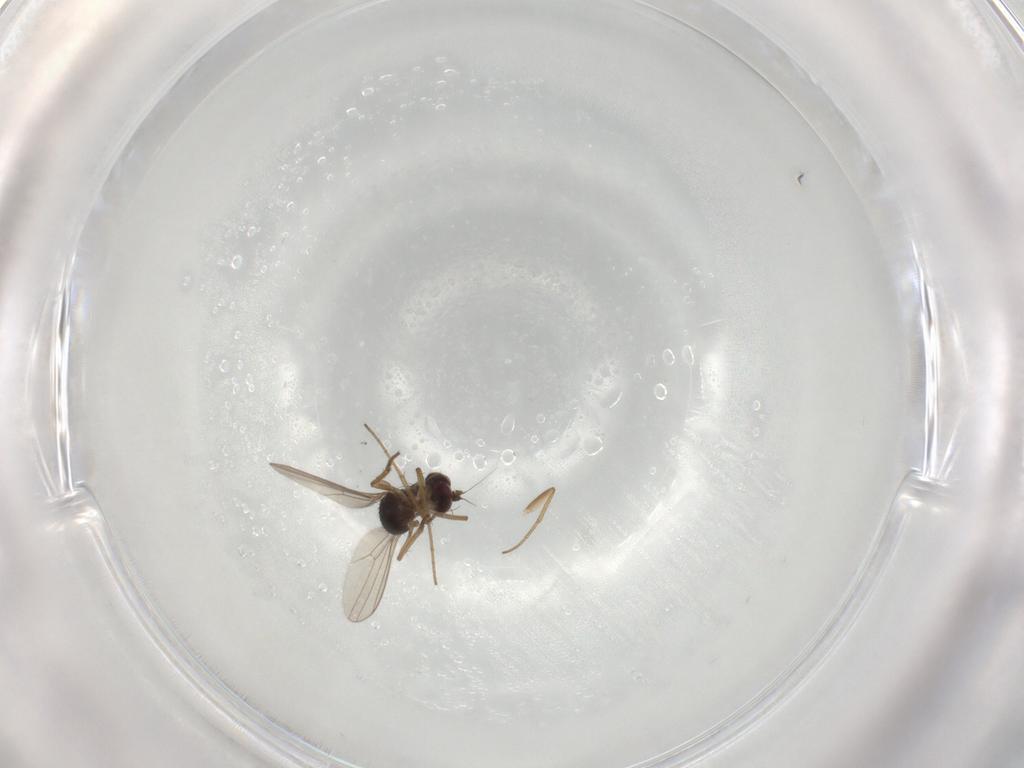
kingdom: Animalia
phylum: Arthropoda
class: Insecta
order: Diptera
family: Dolichopodidae
